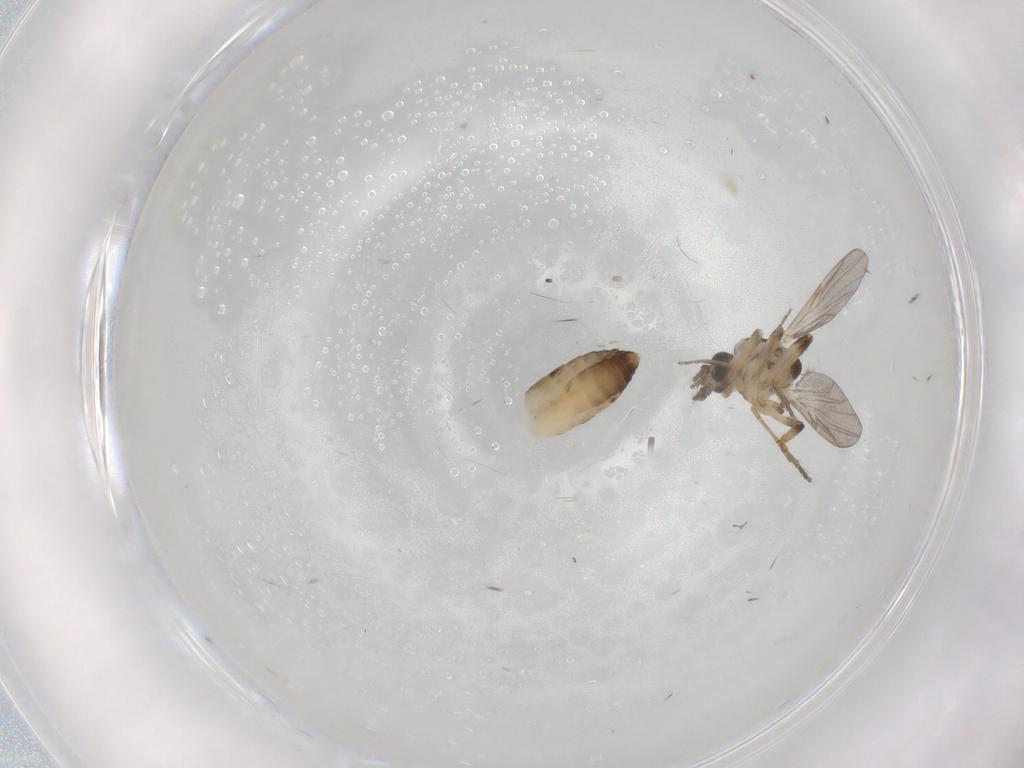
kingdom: Animalia
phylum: Arthropoda
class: Insecta
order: Diptera
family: Ceratopogonidae
